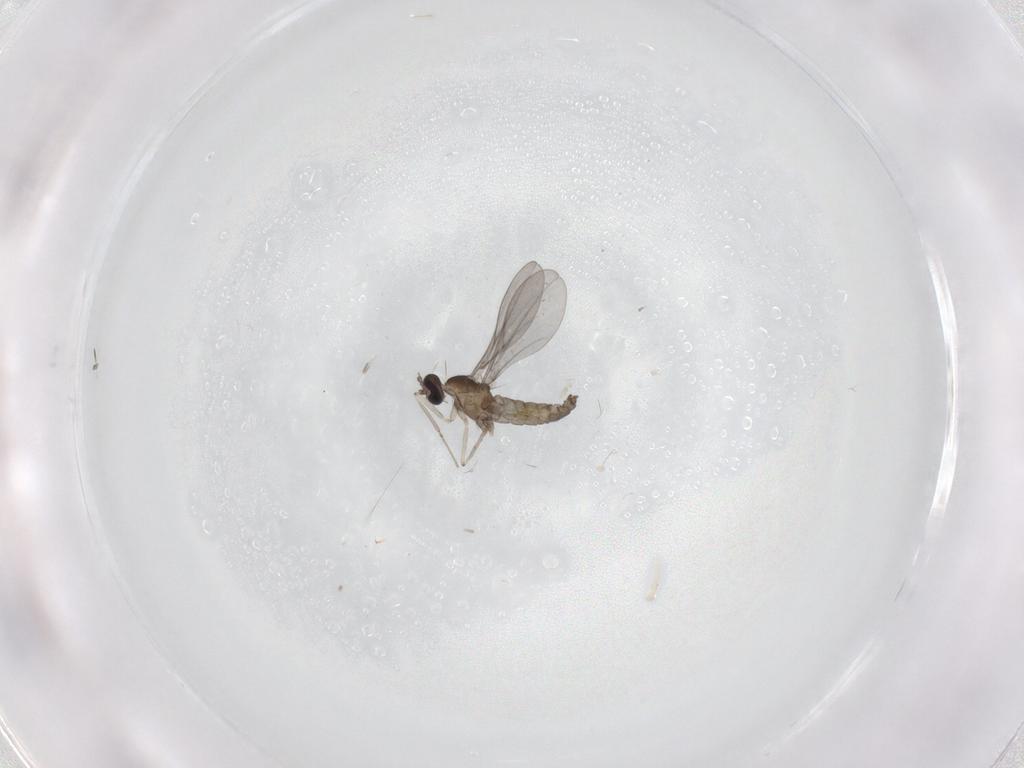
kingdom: Animalia
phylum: Arthropoda
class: Insecta
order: Diptera
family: Cecidomyiidae
